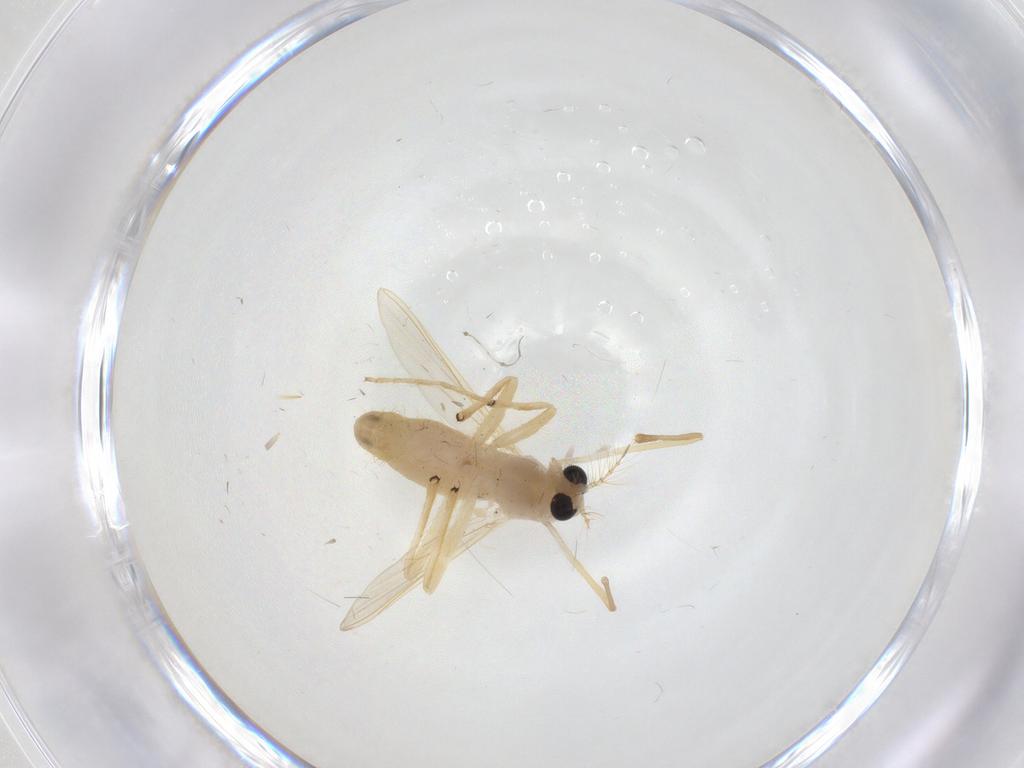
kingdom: Animalia
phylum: Arthropoda
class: Insecta
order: Diptera
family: Chironomidae
